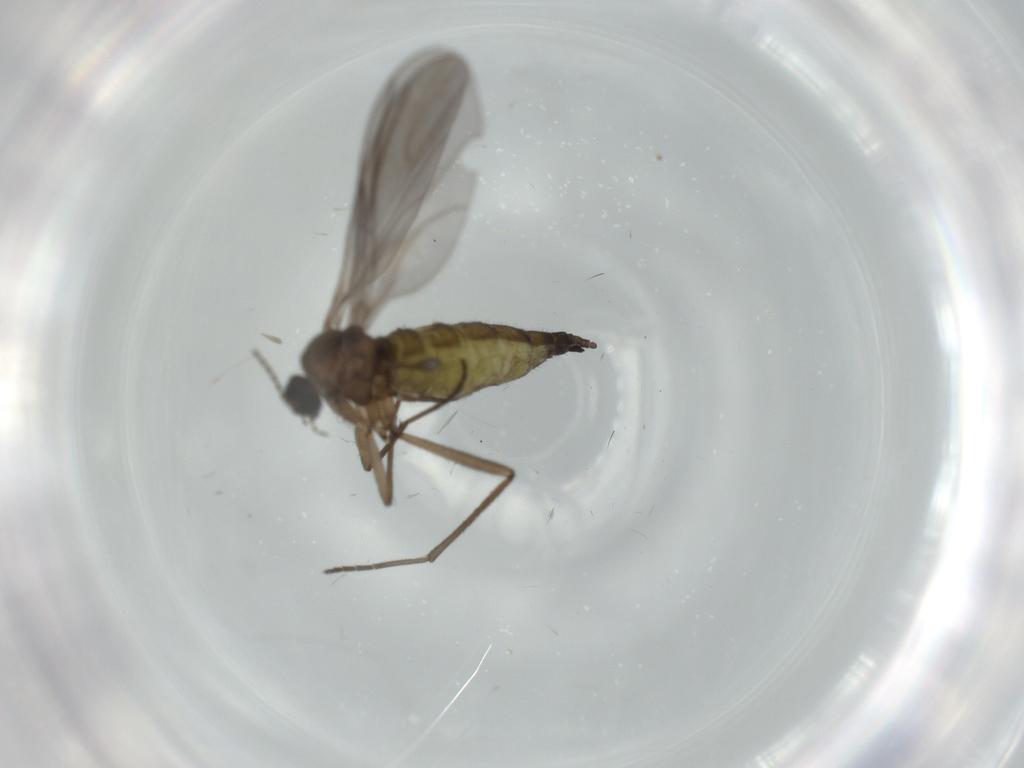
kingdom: Animalia
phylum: Arthropoda
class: Insecta
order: Diptera
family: Sciaridae
